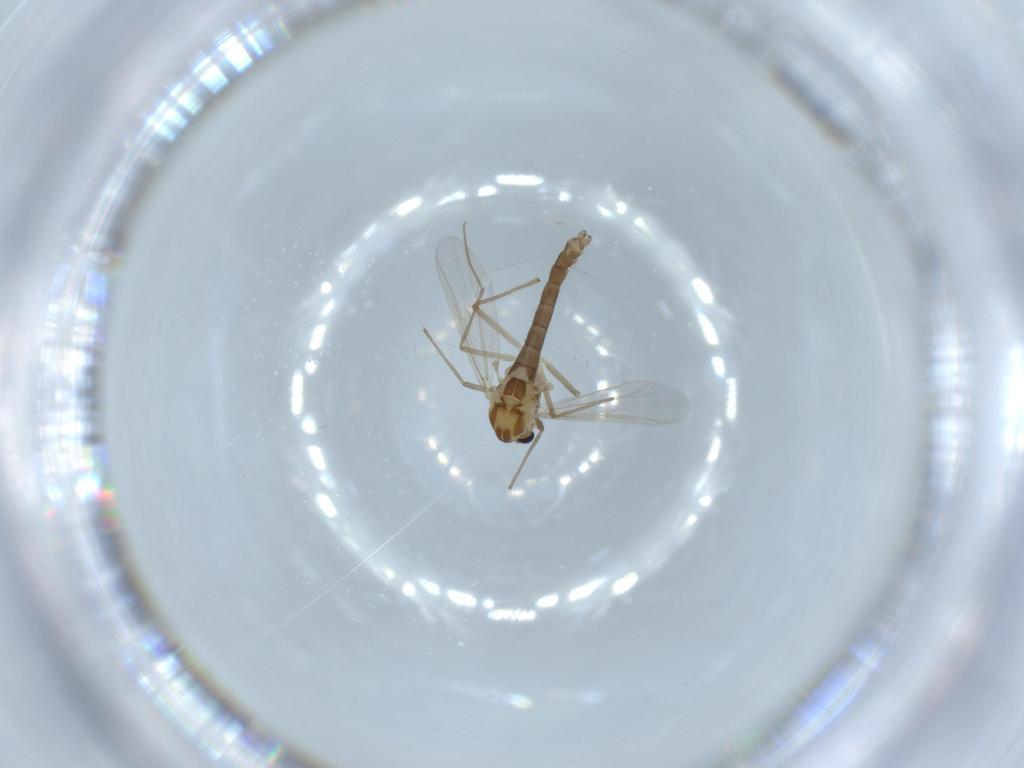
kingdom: Animalia
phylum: Arthropoda
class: Insecta
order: Diptera
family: Chironomidae
